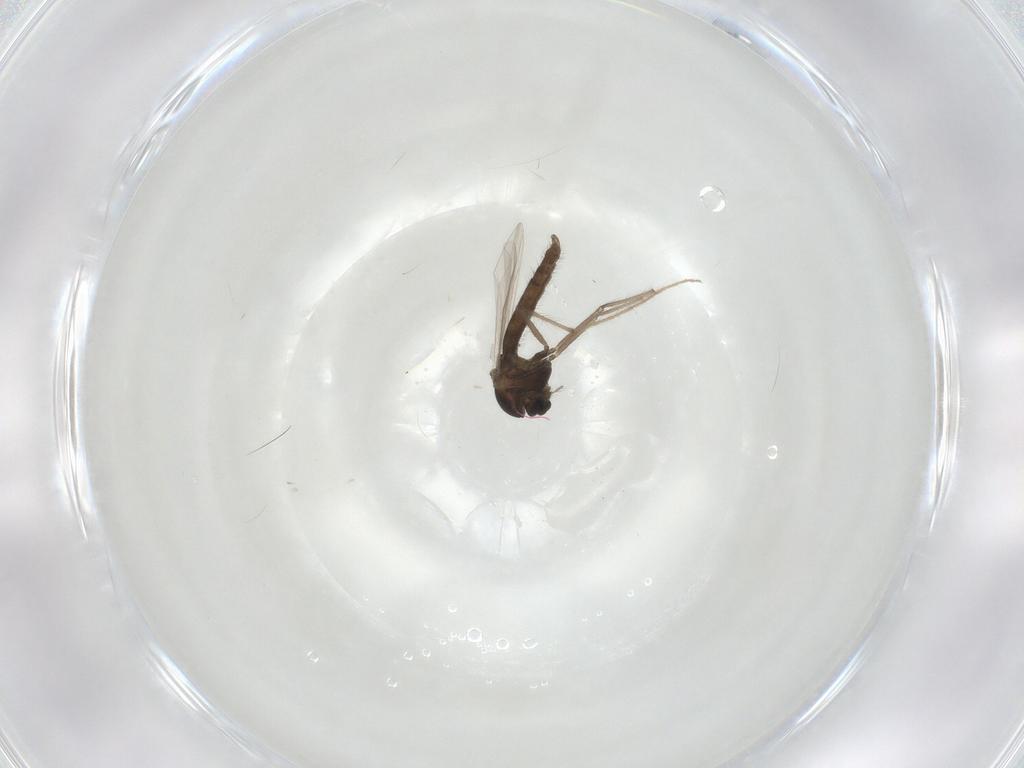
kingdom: Animalia
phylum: Arthropoda
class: Insecta
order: Diptera
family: Chironomidae
